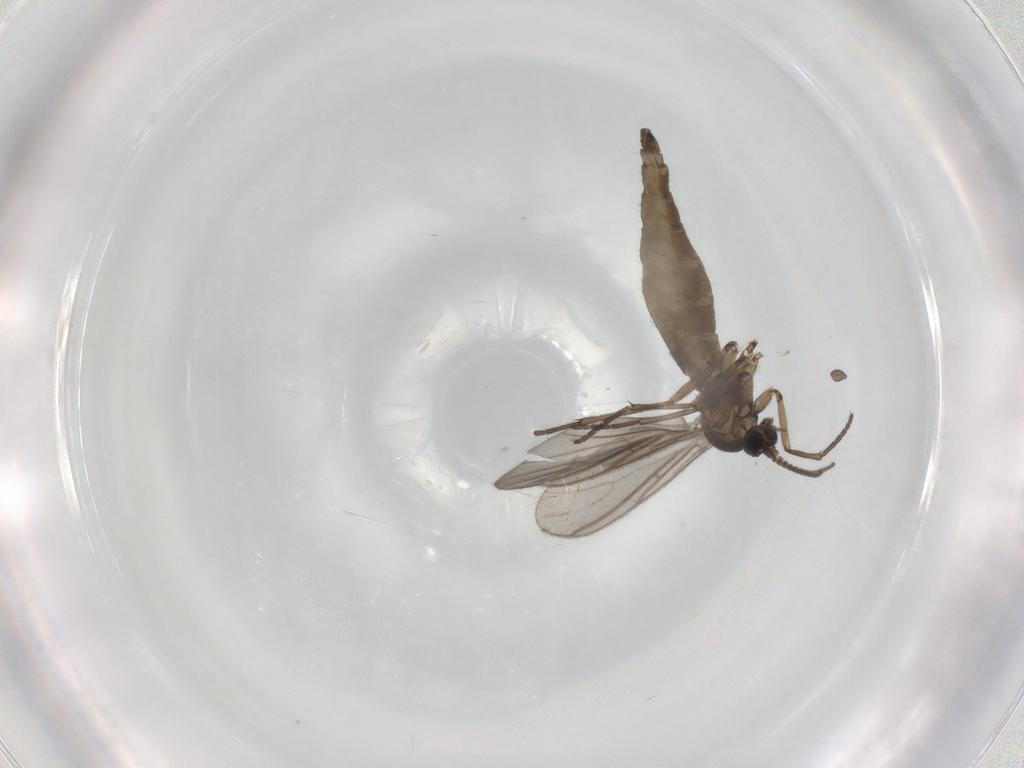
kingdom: Animalia
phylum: Arthropoda
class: Insecta
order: Diptera
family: Sciaridae
